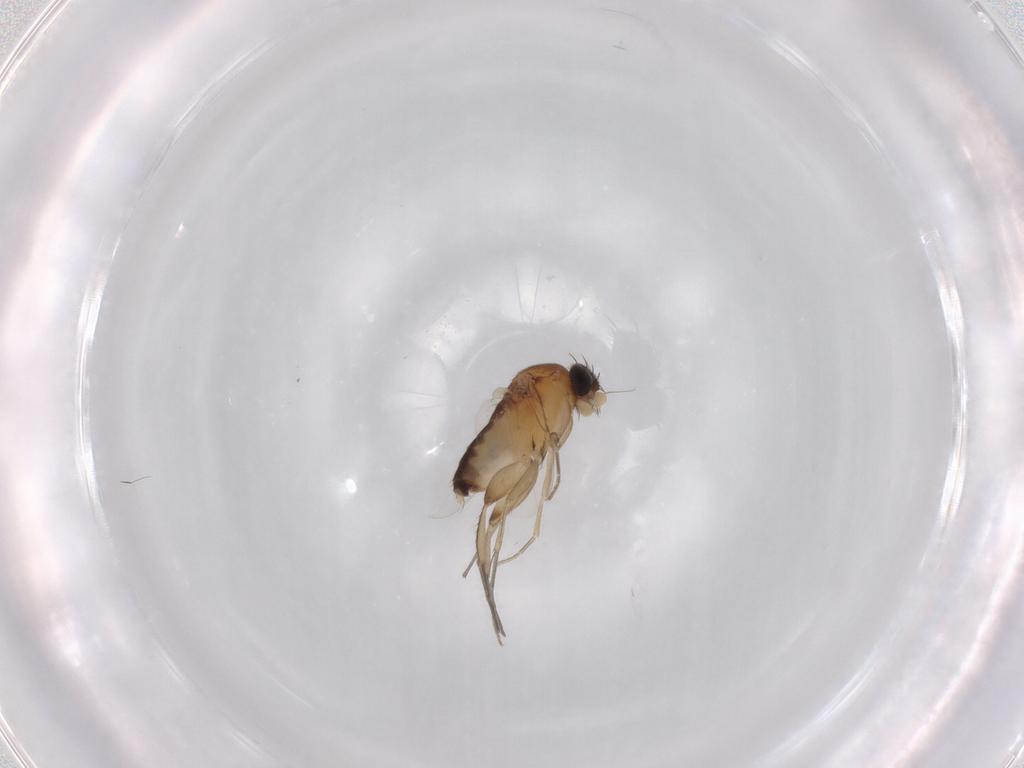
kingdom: Animalia
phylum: Arthropoda
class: Insecta
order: Diptera
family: Phoridae
